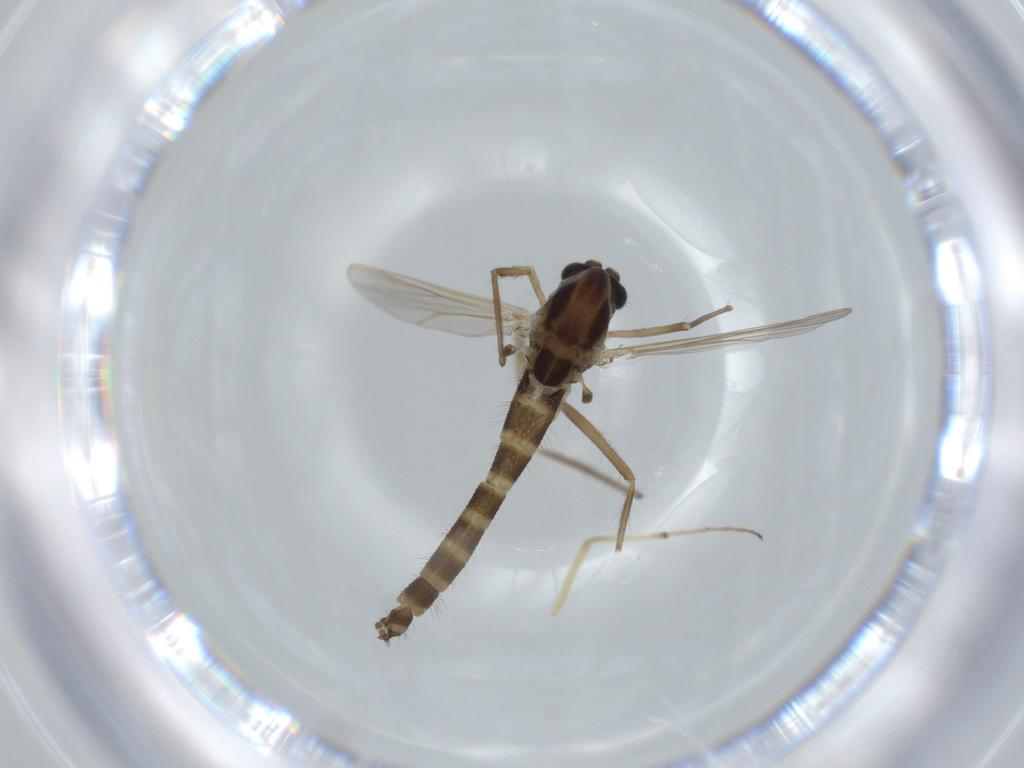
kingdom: Animalia
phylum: Arthropoda
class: Insecta
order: Diptera
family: Chironomidae
